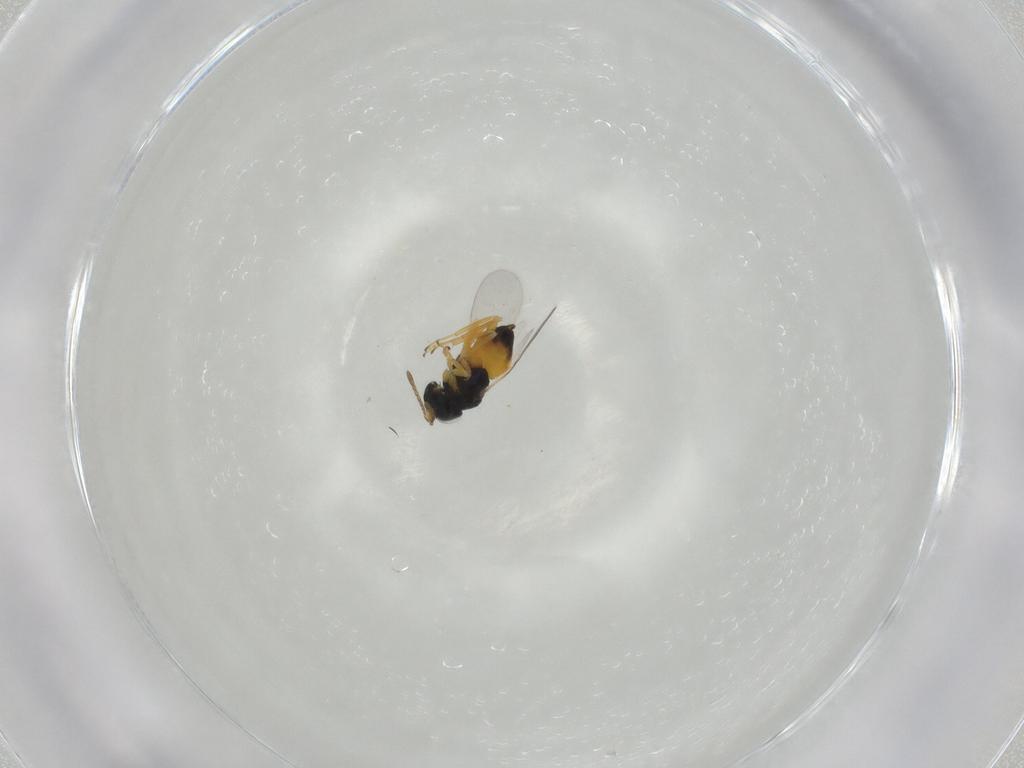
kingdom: Animalia
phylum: Arthropoda
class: Insecta
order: Hymenoptera
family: Encyrtidae
